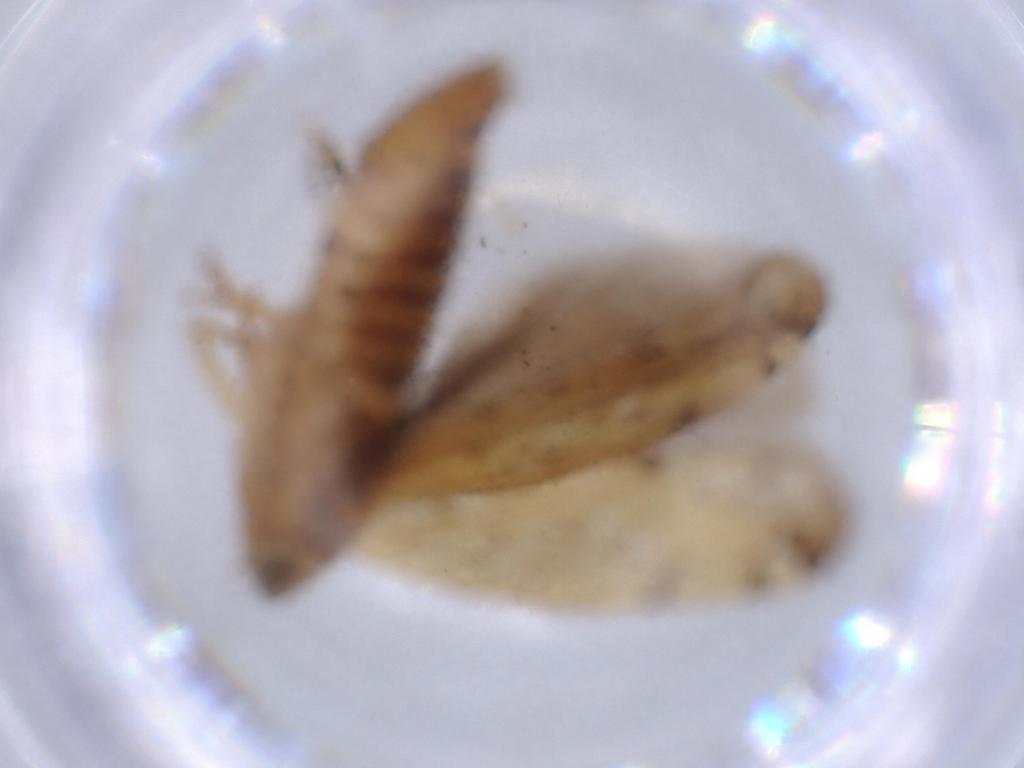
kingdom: Animalia
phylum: Arthropoda
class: Insecta
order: Hemiptera
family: Cicadellidae
